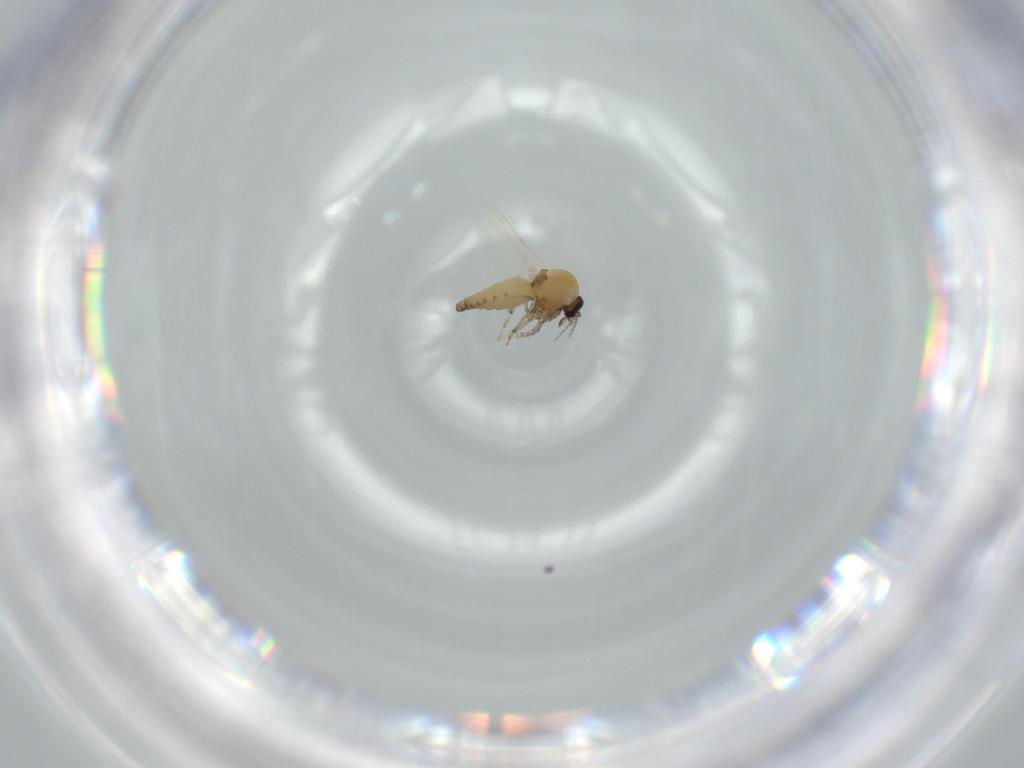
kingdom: Animalia
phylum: Arthropoda
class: Insecta
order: Diptera
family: Ceratopogonidae
